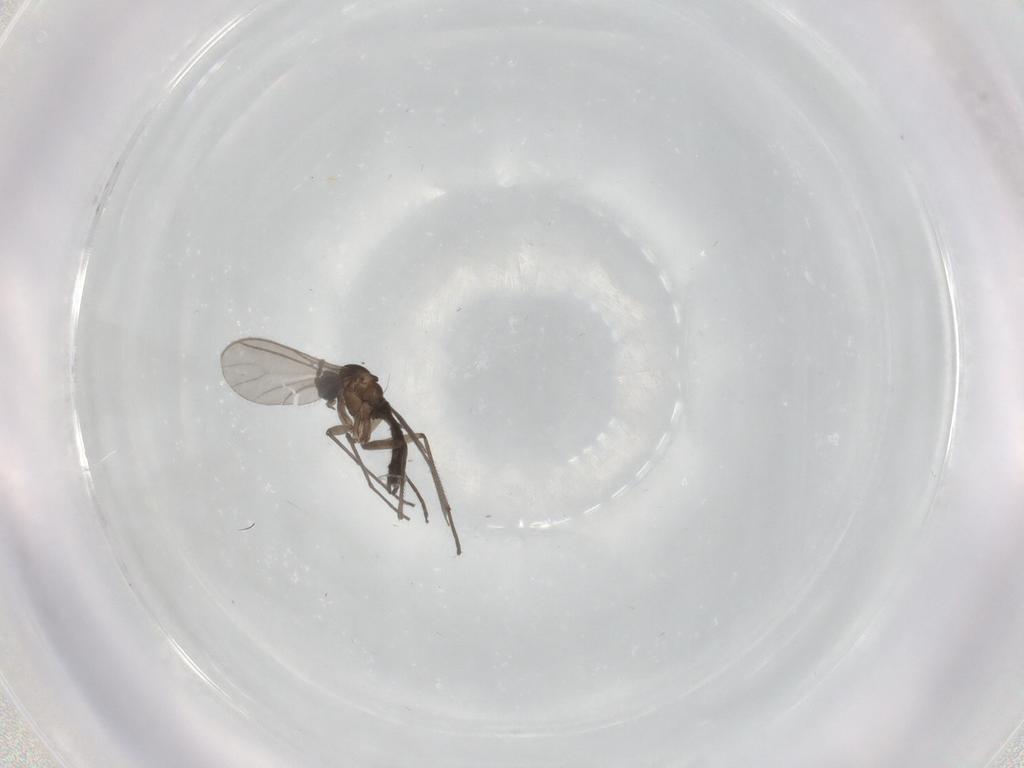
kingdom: Animalia
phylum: Arthropoda
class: Insecta
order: Diptera
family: Sciaridae
